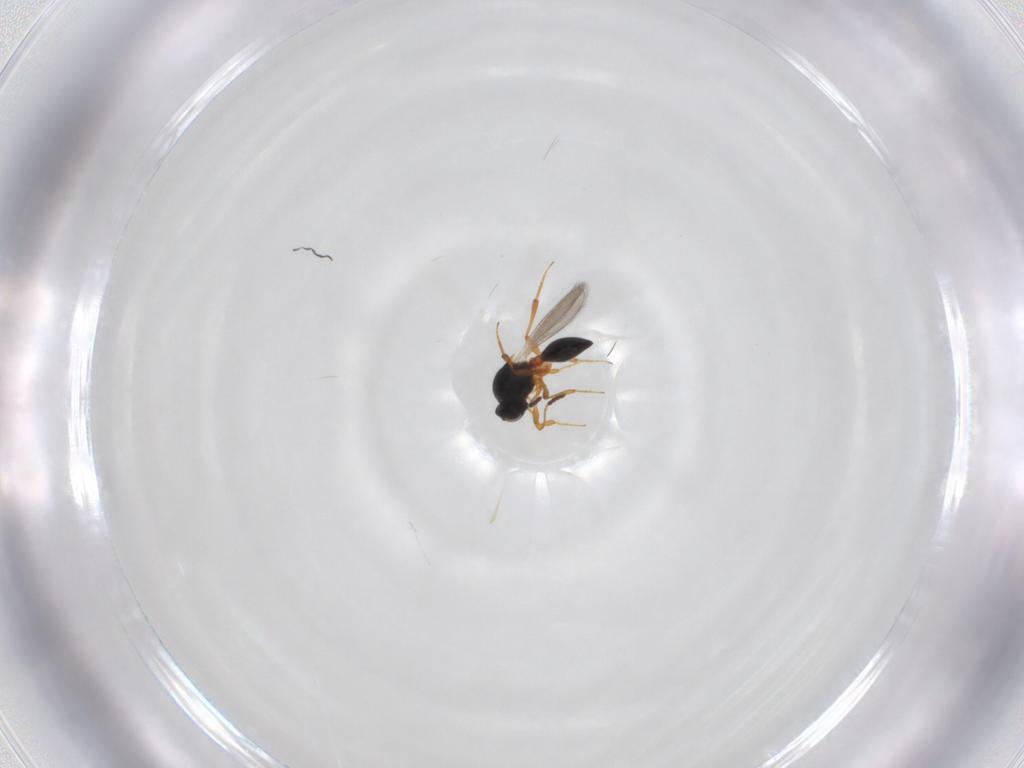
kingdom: Animalia
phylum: Arthropoda
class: Insecta
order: Hymenoptera
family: Platygastridae
